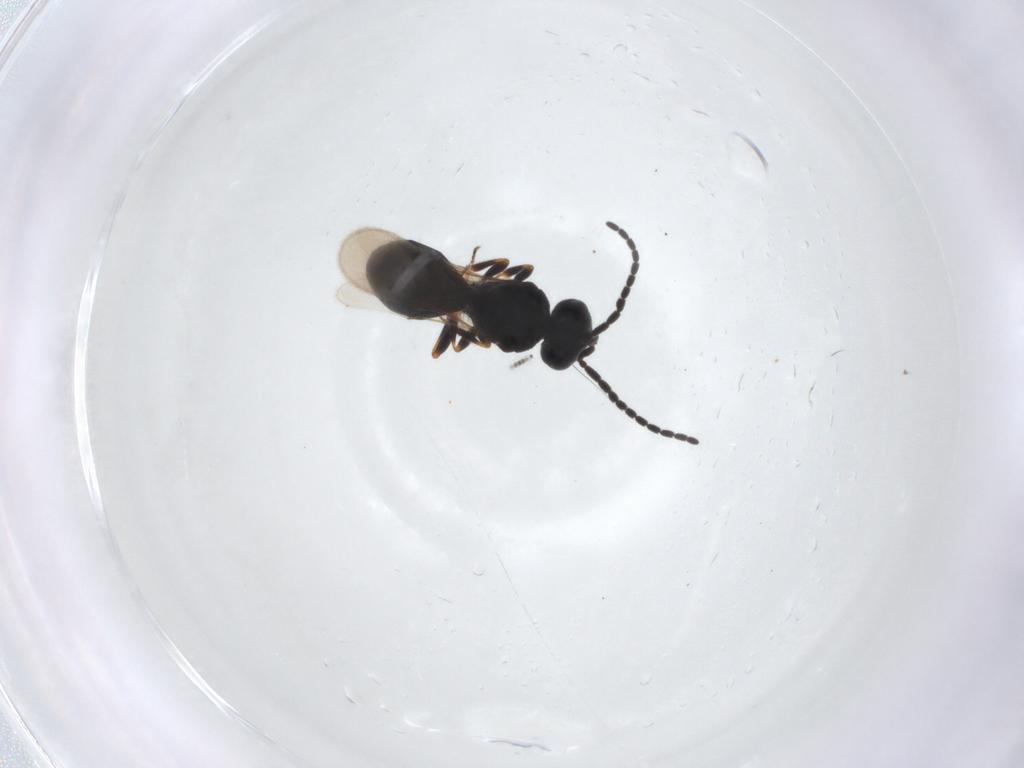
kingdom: Animalia
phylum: Arthropoda
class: Insecta
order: Hymenoptera
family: Scelionidae
